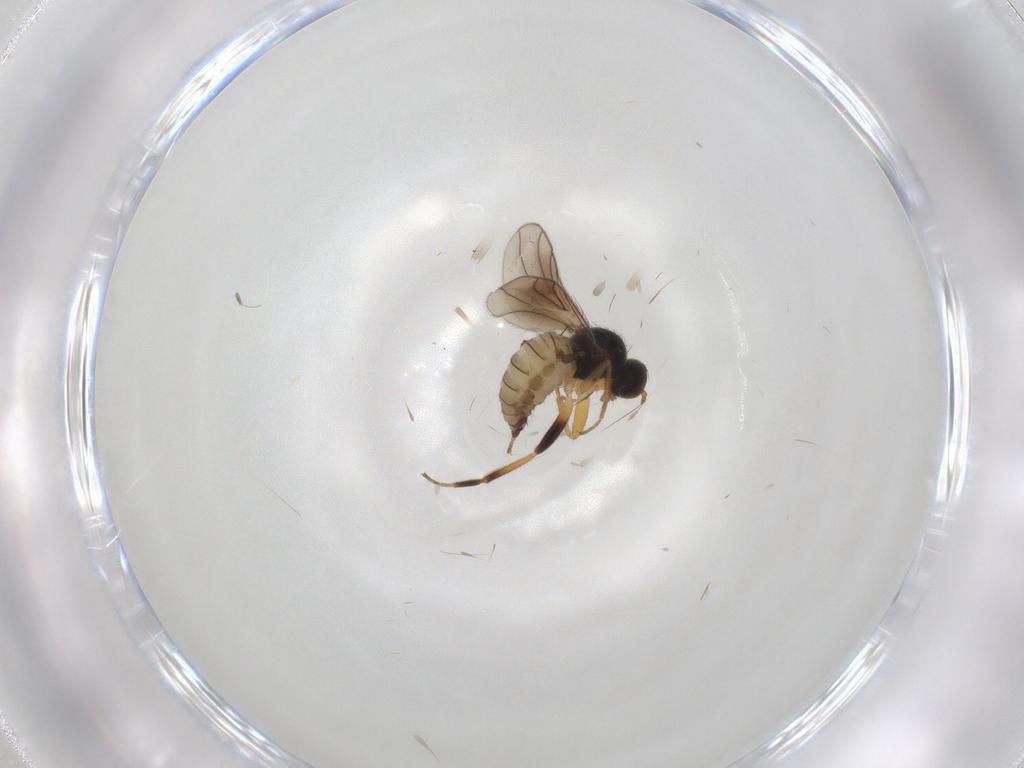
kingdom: Animalia
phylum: Arthropoda
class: Insecta
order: Diptera
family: Hybotidae
